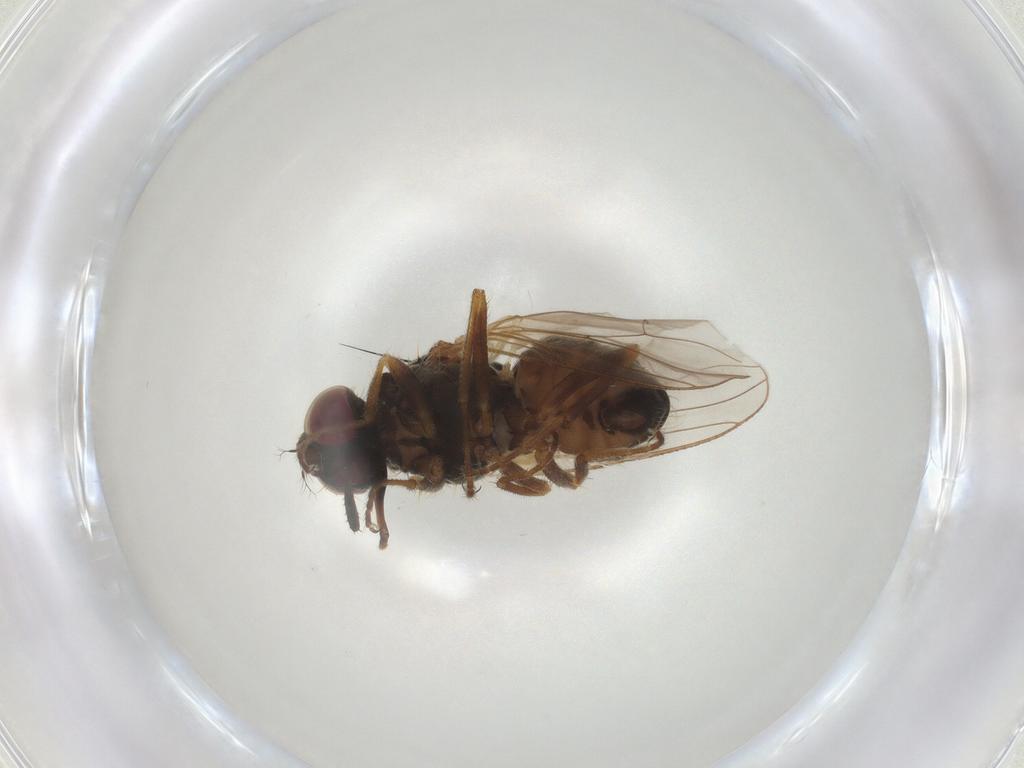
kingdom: Animalia
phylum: Arthropoda
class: Insecta
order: Diptera
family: Muscidae
